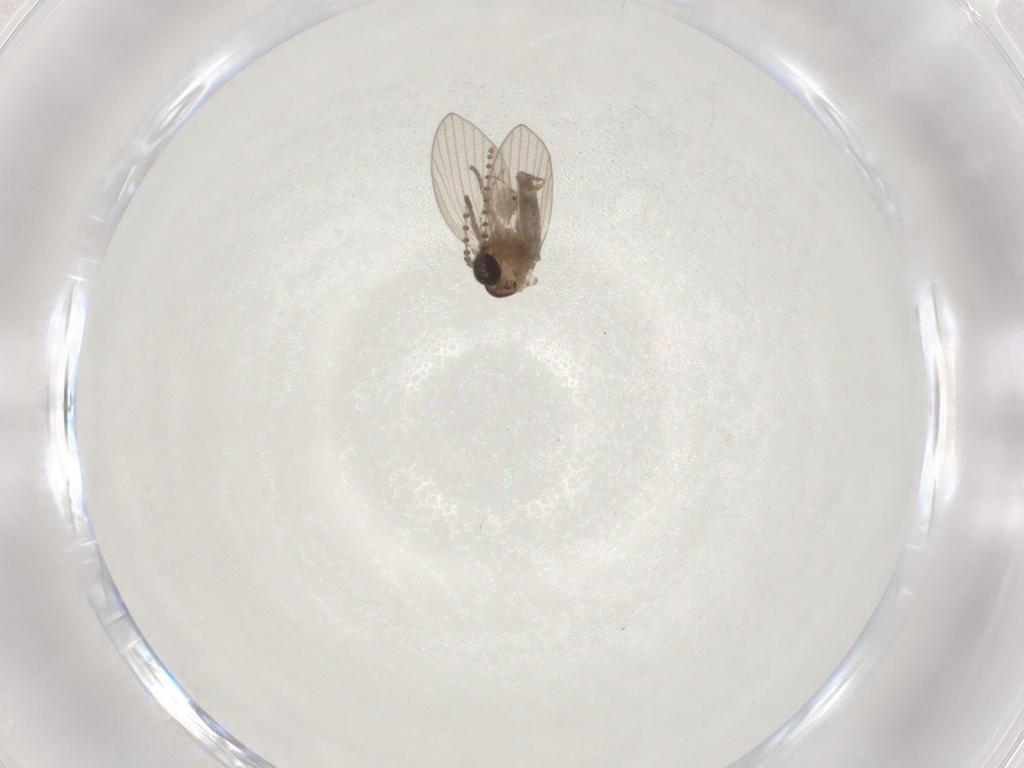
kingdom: Animalia
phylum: Arthropoda
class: Insecta
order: Diptera
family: Psychodidae
